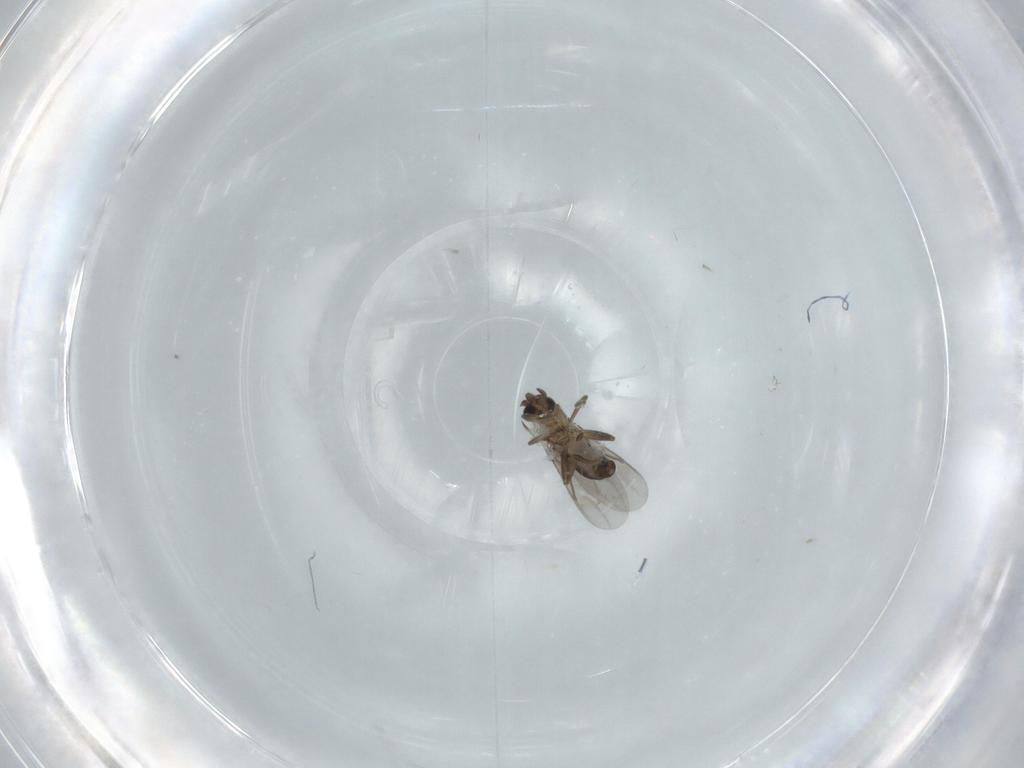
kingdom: Animalia
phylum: Arthropoda
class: Insecta
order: Diptera
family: Dolichopodidae
